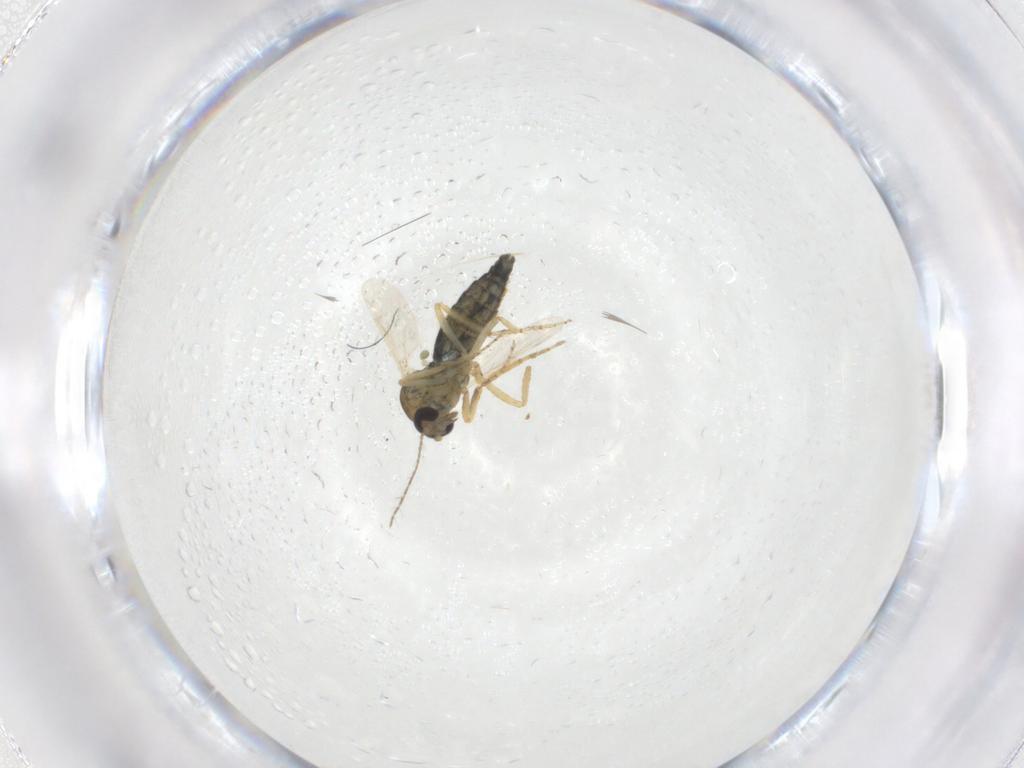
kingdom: Animalia
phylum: Arthropoda
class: Insecta
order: Diptera
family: Ceratopogonidae
